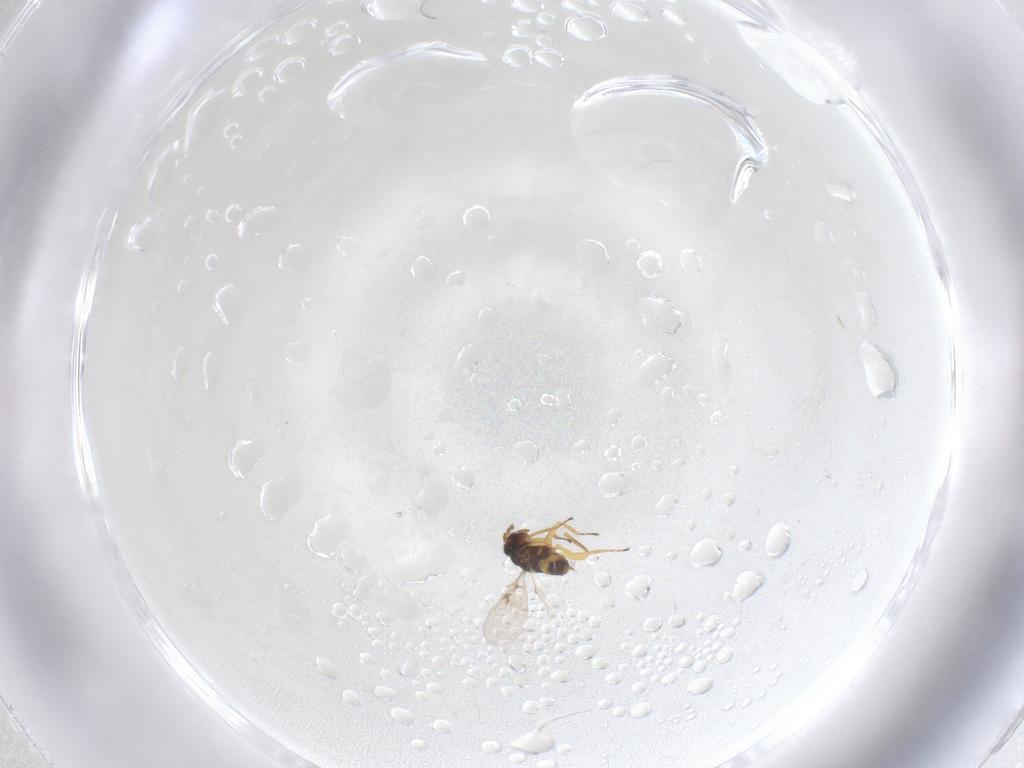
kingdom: Animalia
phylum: Arthropoda
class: Insecta
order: Hymenoptera
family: Eulophidae
